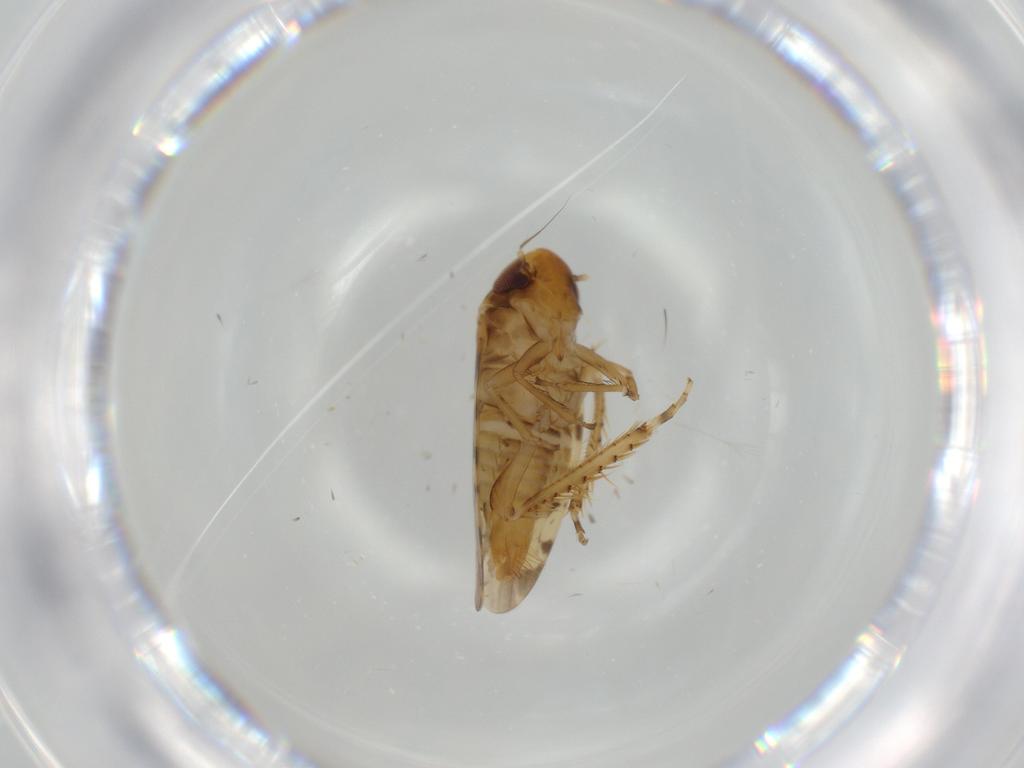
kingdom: Animalia
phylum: Arthropoda
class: Insecta
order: Hemiptera
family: Cicadellidae
